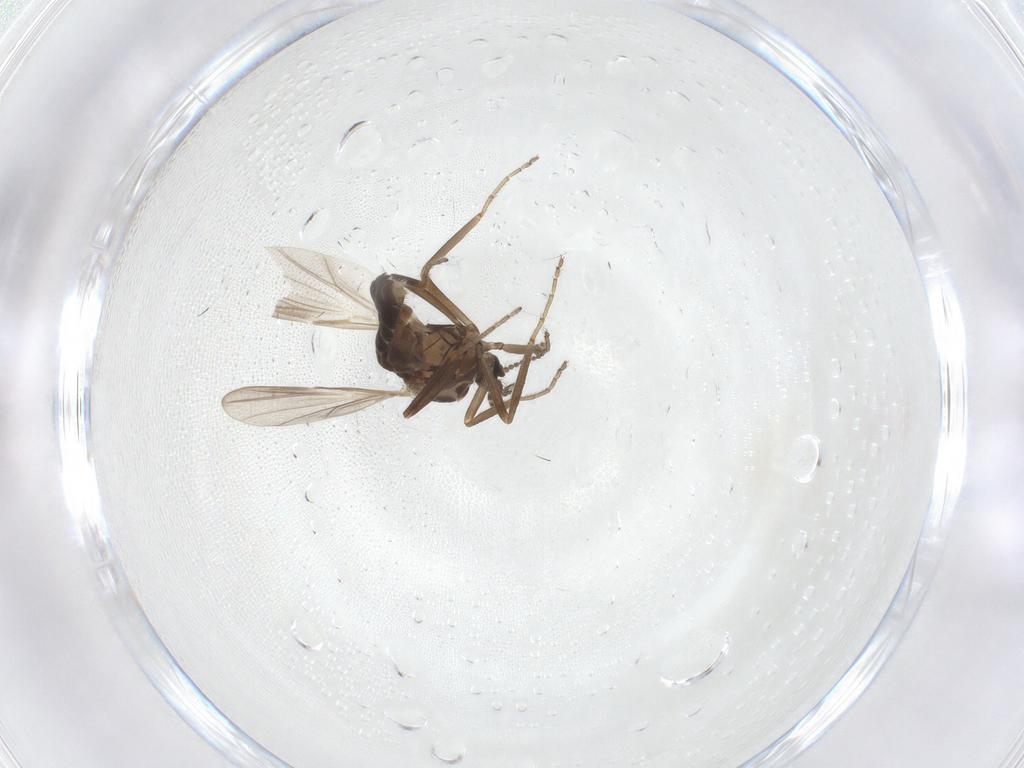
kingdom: Animalia
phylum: Arthropoda
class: Insecta
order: Diptera
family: Ceratopogonidae
